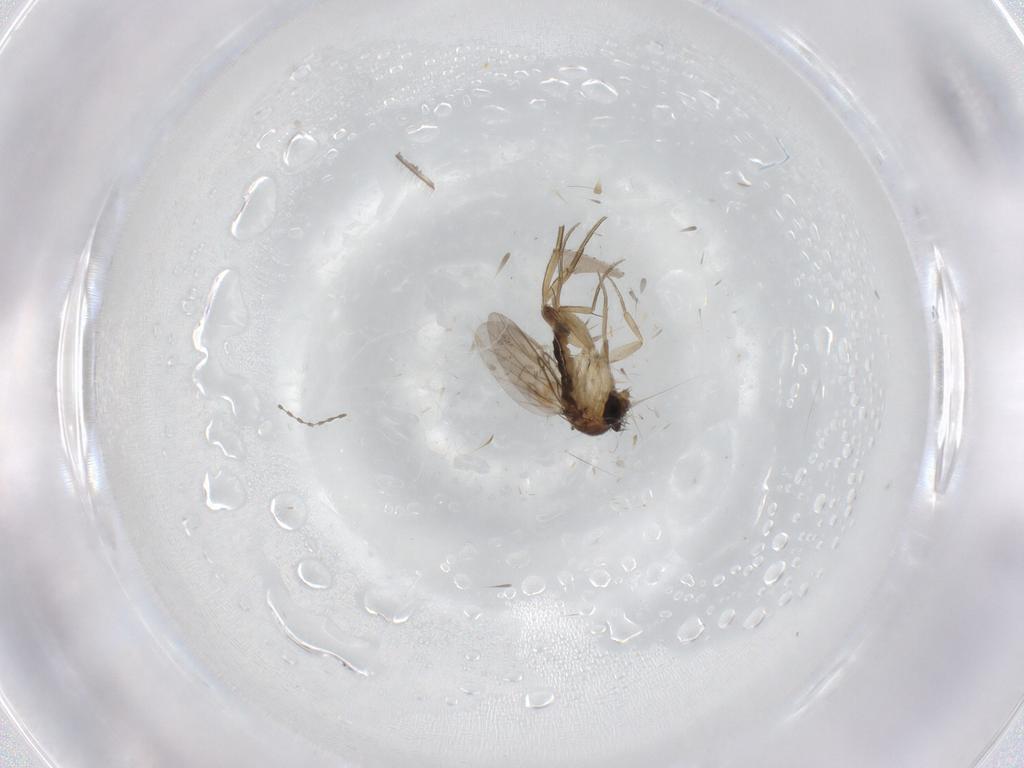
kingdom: Animalia
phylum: Arthropoda
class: Insecta
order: Diptera
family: Phoridae
